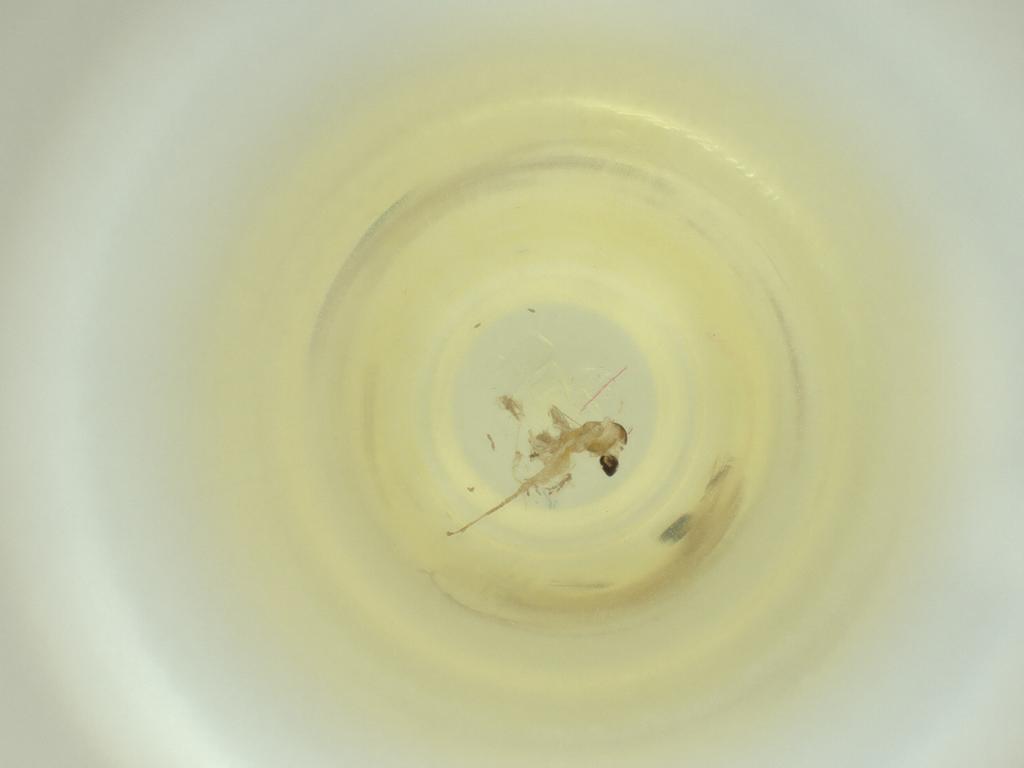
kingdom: Animalia
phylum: Arthropoda
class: Insecta
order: Diptera
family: Cecidomyiidae
